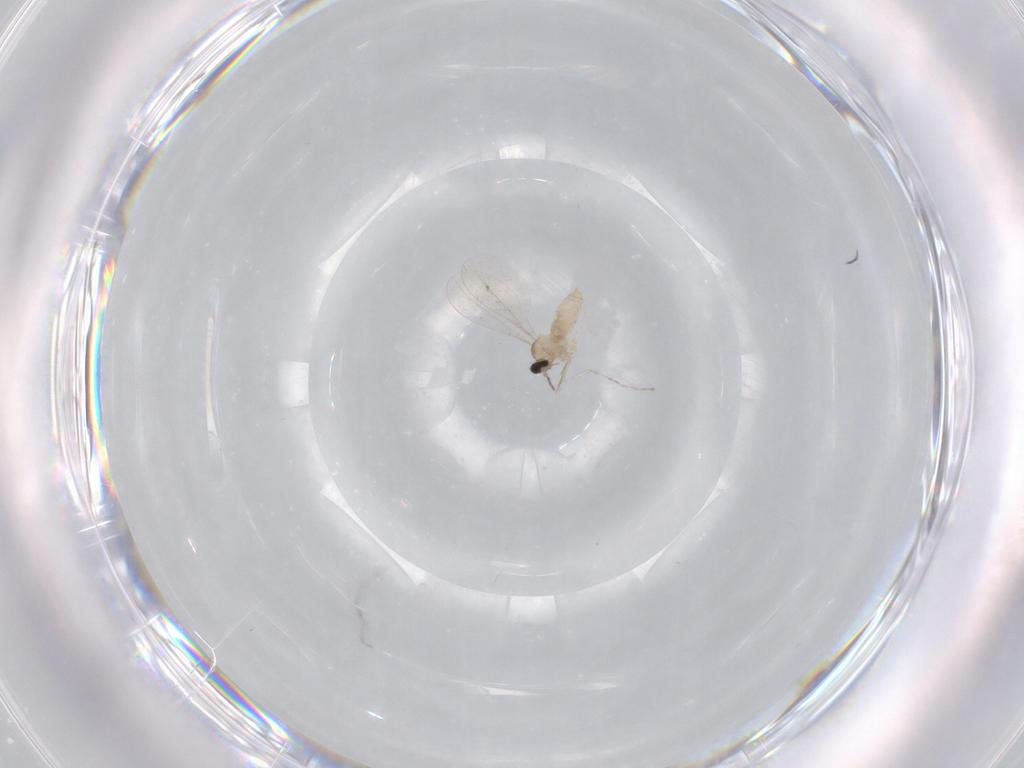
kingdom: Animalia
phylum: Arthropoda
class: Insecta
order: Diptera
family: Cecidomyiidae
